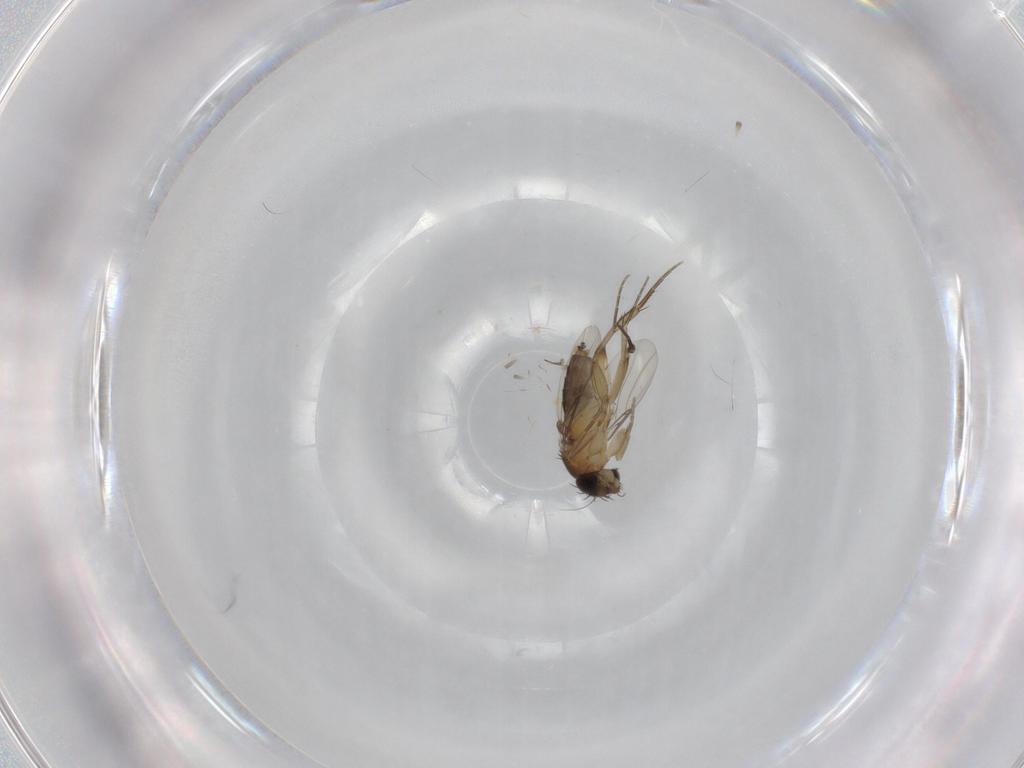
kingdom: Animalia
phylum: Arthropoda
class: Insecta
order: Diptera
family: Phoridae
